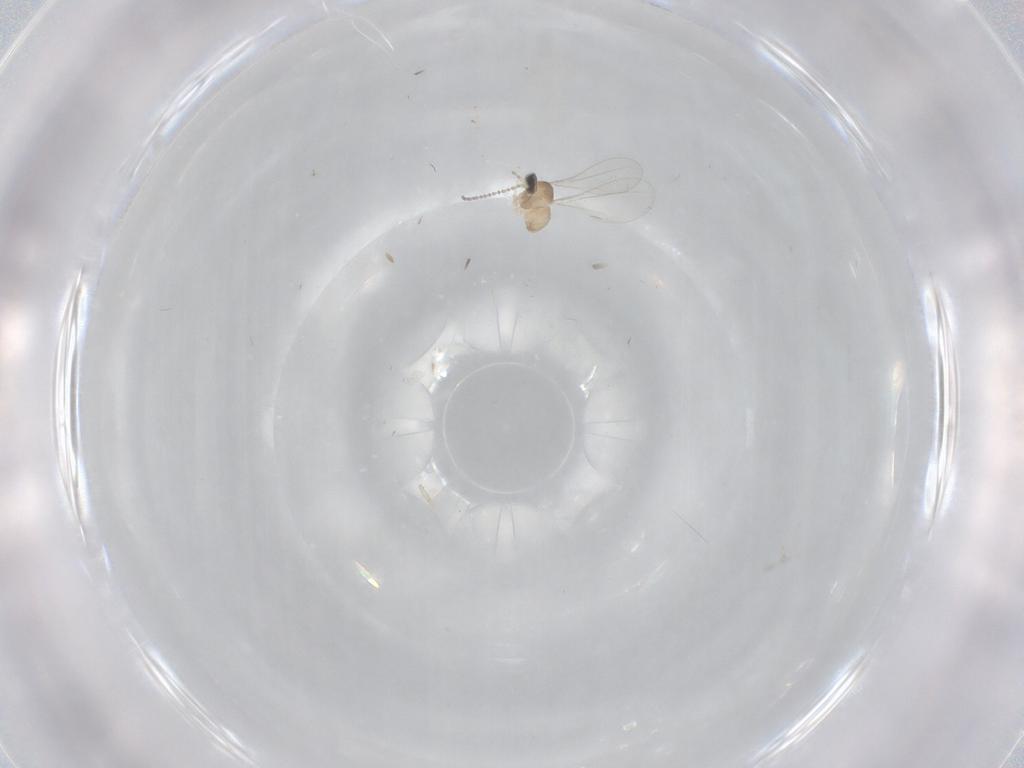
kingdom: Animalia
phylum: Arthropoda
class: Insecta
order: Diptera
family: Cecidomyiidae
